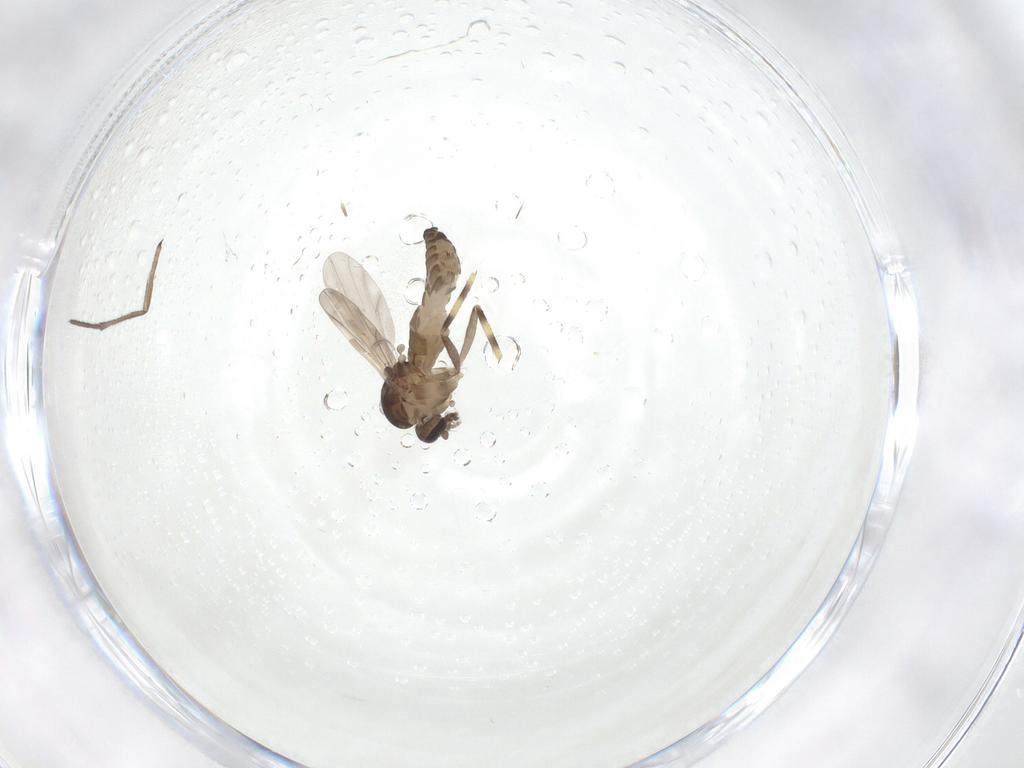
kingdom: Animalia
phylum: Arthropoda
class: Insecta
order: Diptera
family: Ceratopogonidae
